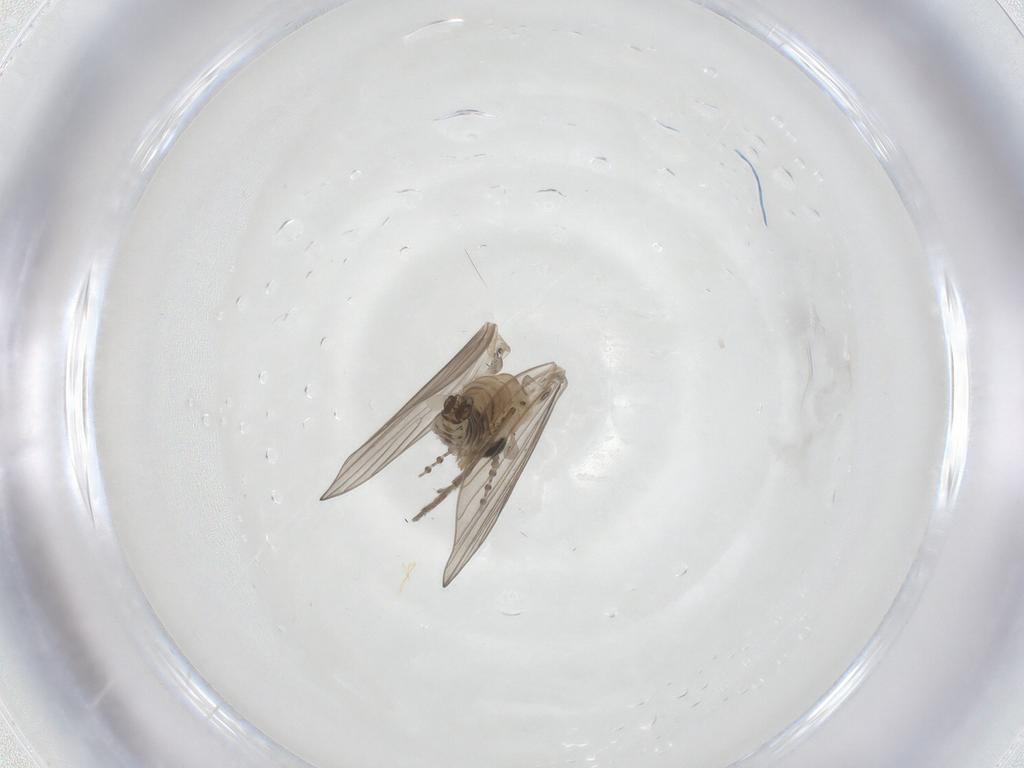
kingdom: Animalia
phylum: Arthropoda
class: Insecta
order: Diptera
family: Psychodidae
